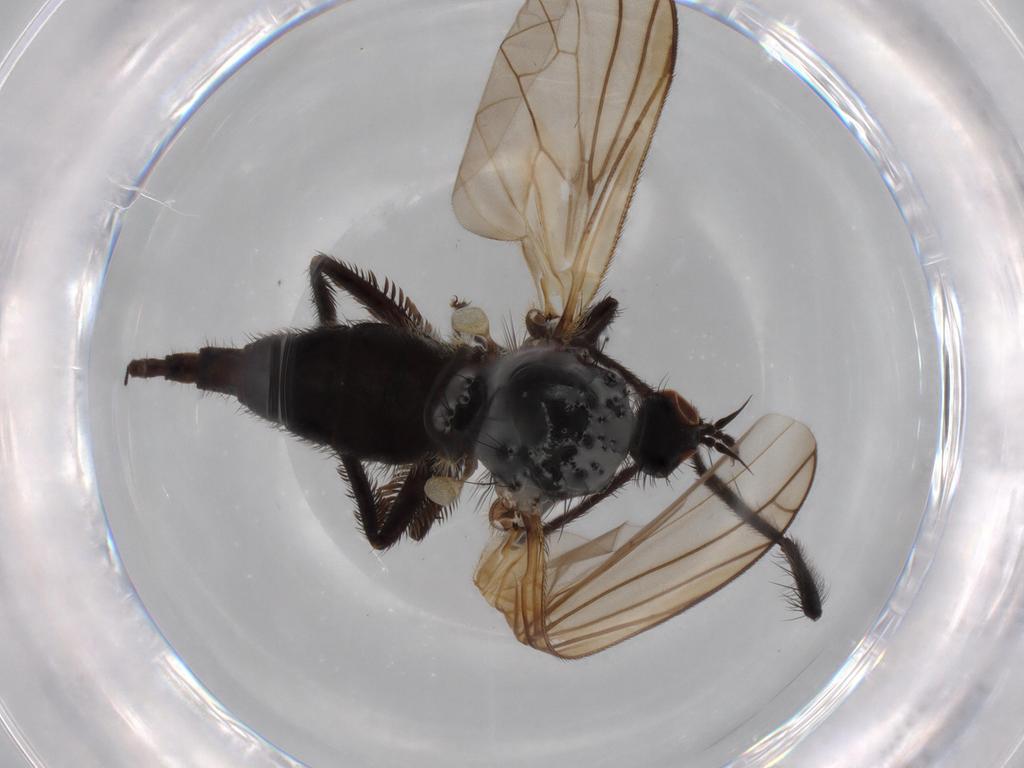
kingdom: Animalia
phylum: Arthropoda
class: Insecta
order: Diptera
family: Empididae
